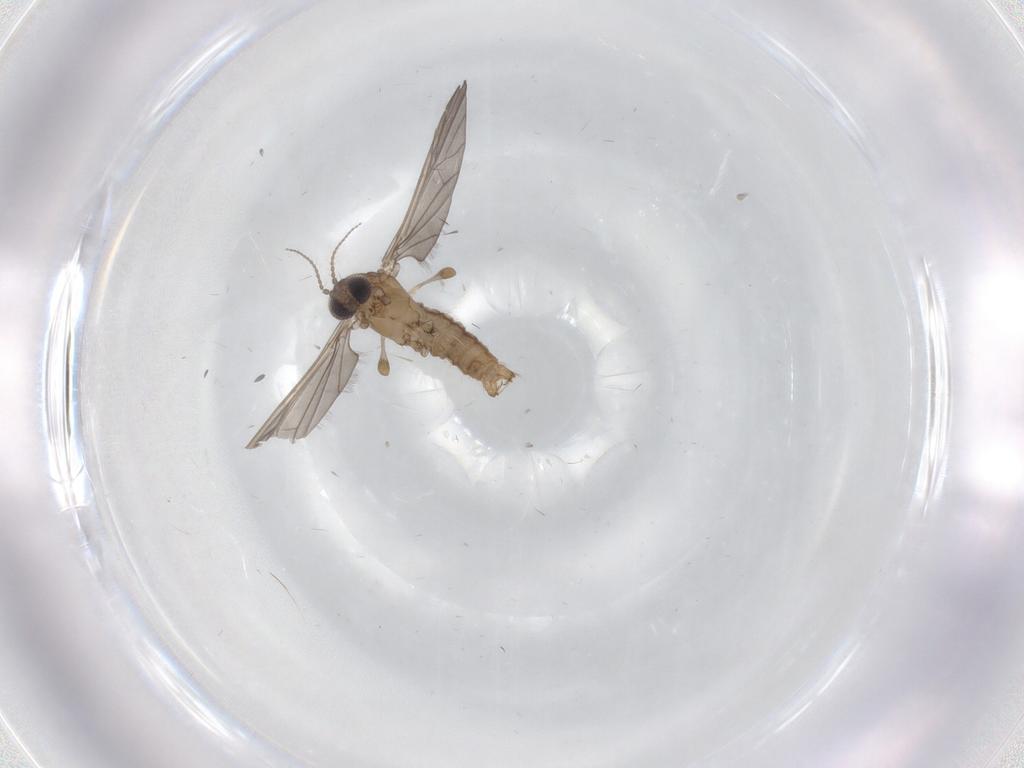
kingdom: Animalia
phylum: Arthropoda
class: Insecta
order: Diptera
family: Limoniidae
